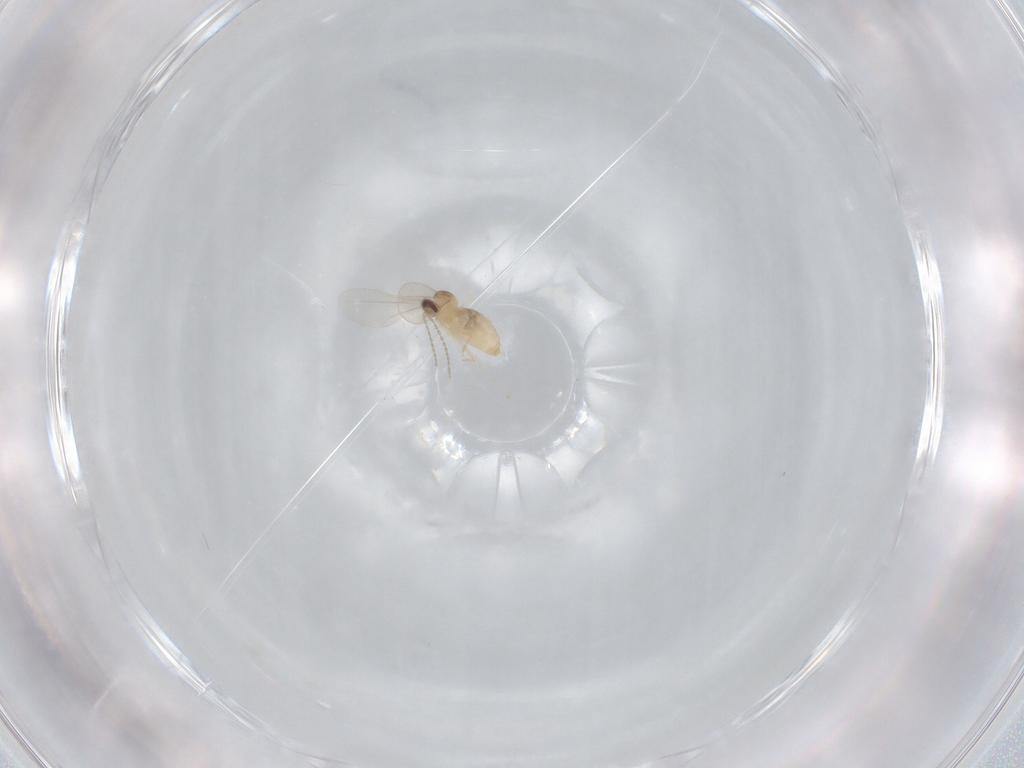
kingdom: Animalia
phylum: Arthropoda
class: Insecta
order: Diptera
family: Cecidomyiidae
